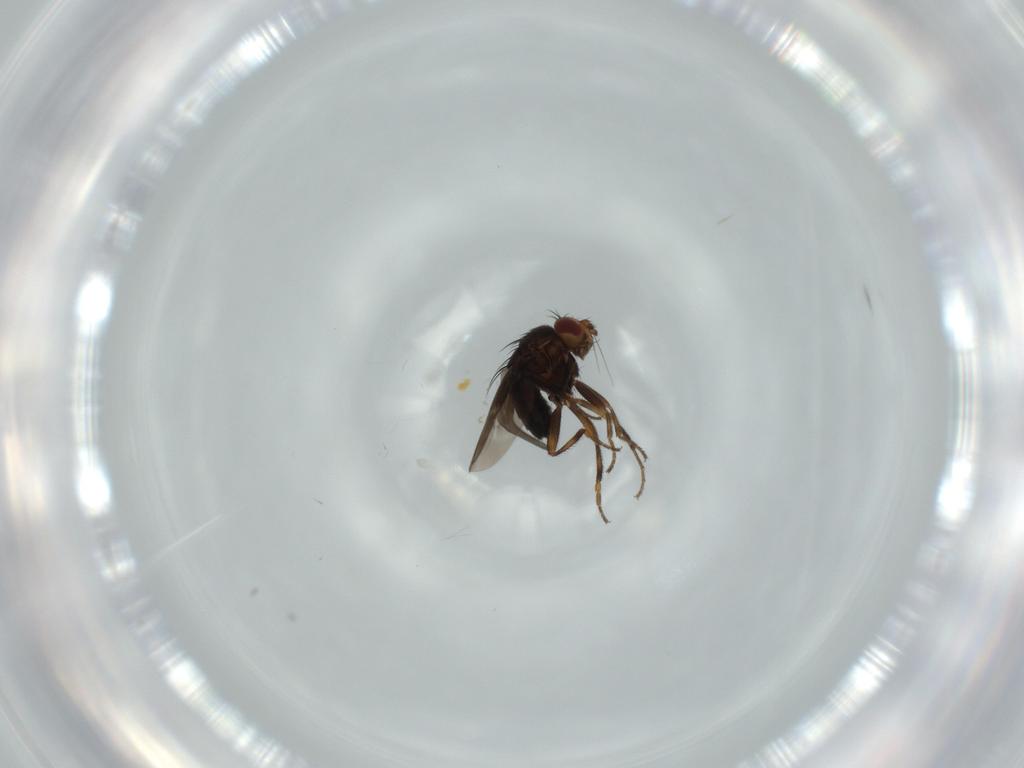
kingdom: Animalia
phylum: Arthropoda
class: Insecta
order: Diptera
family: Sphaeroceridae
